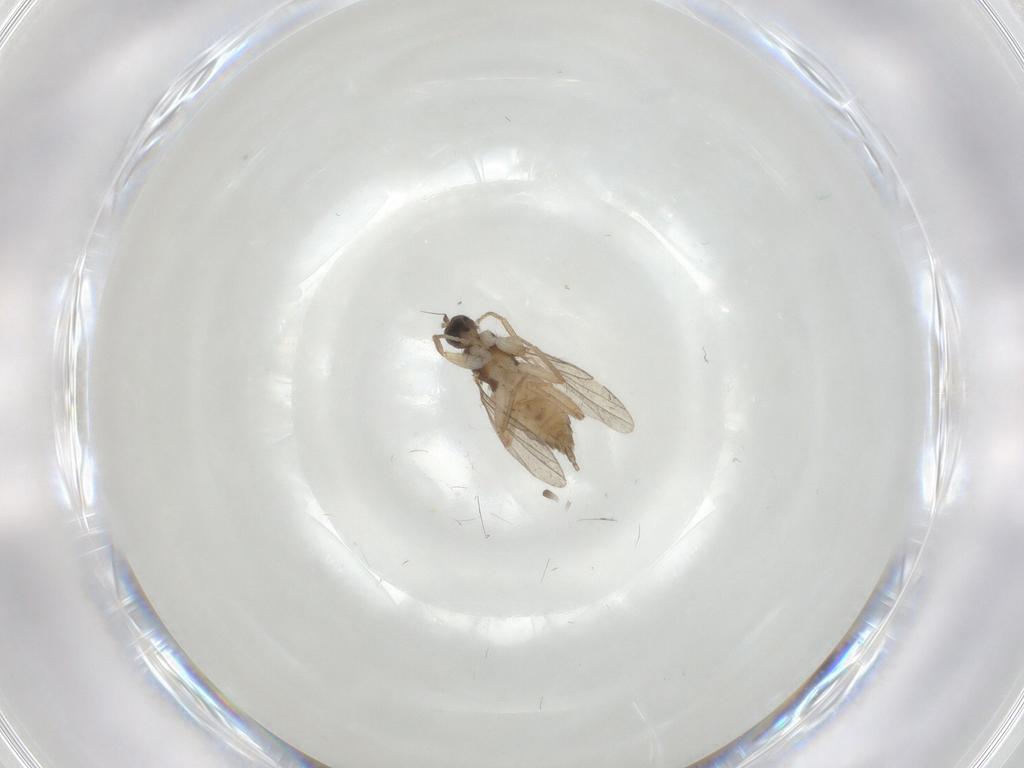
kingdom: Animalia
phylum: Arthropoda
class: Insecta
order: Diptera
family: Hybotidae
